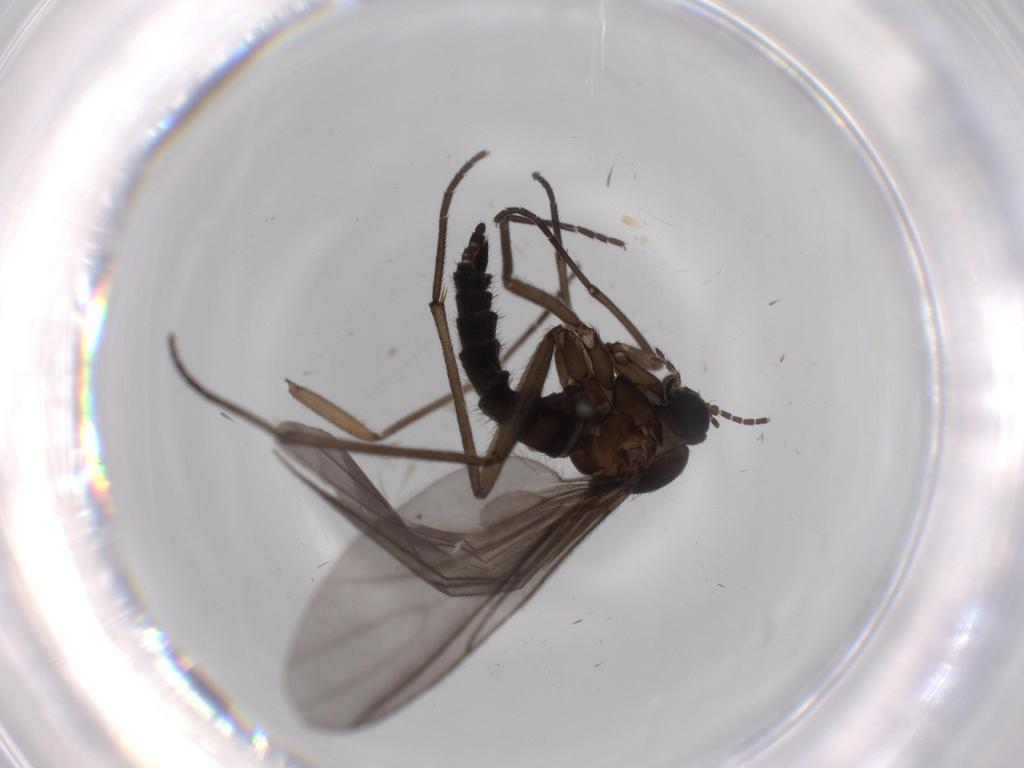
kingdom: Animalia
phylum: Arthropoda
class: Insecta
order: Diptera
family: Sciaridae
